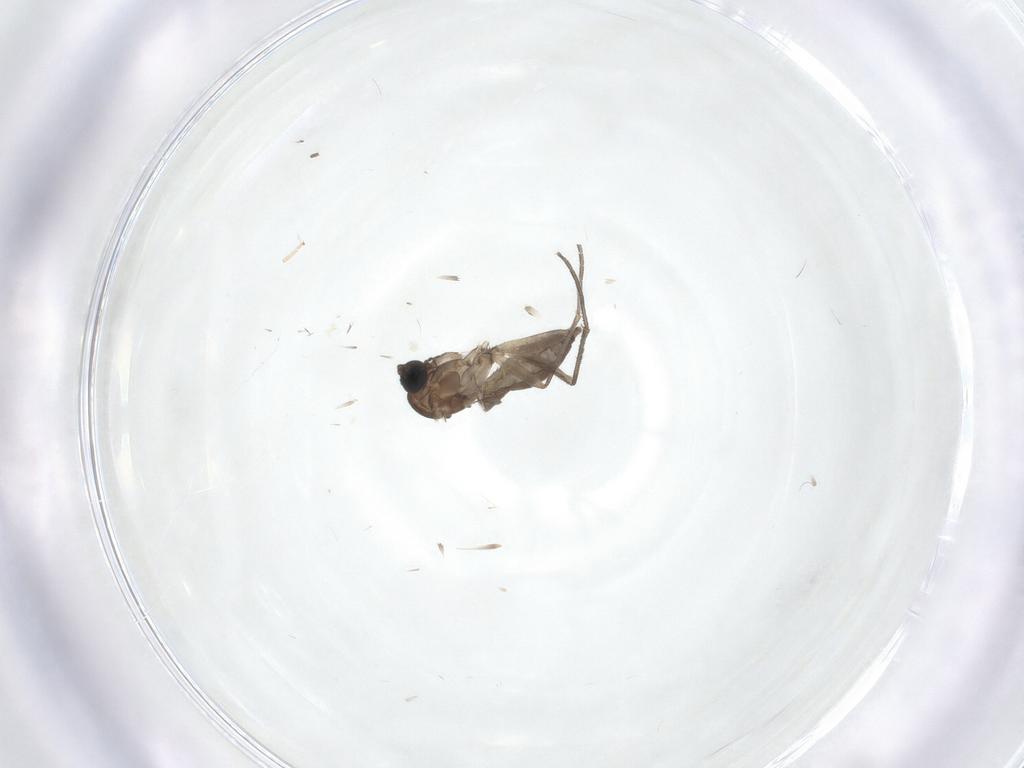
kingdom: Animalia
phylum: Arthropoda
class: Insecta
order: Diptera
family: Sciaridae
